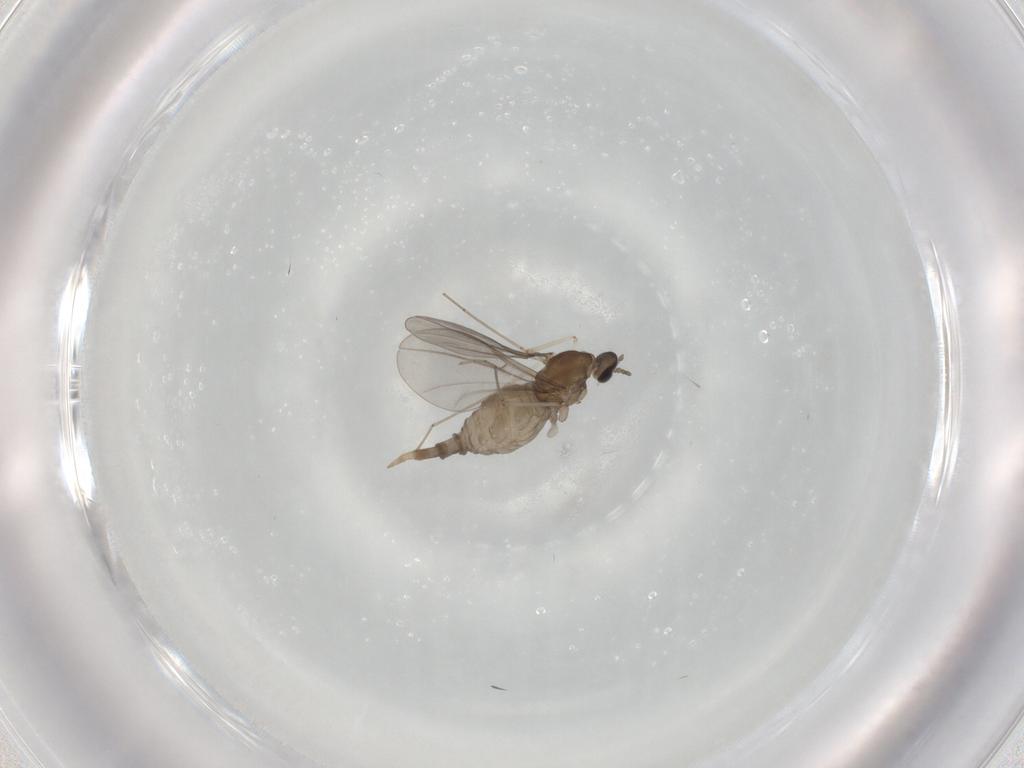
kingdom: Animalia
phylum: Arthropoda
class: Insecta
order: Diptera
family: Cecidomyiidae
